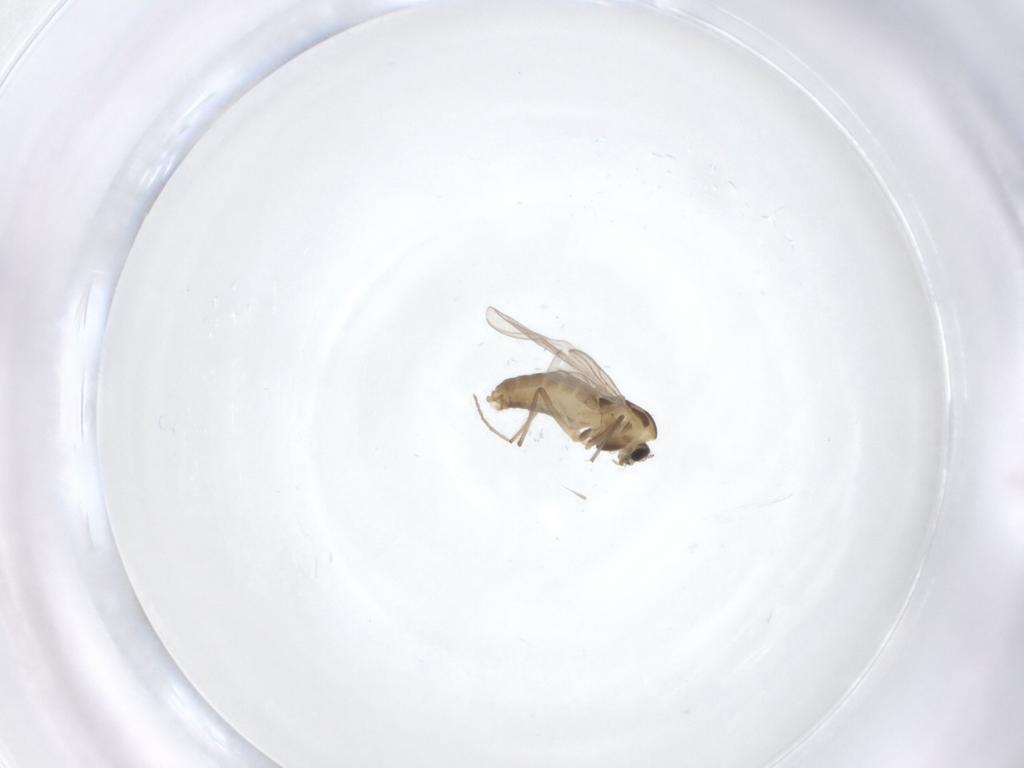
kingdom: Animalia
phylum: Arthropoda
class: Insecta
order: Diptera
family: Chironomidae
